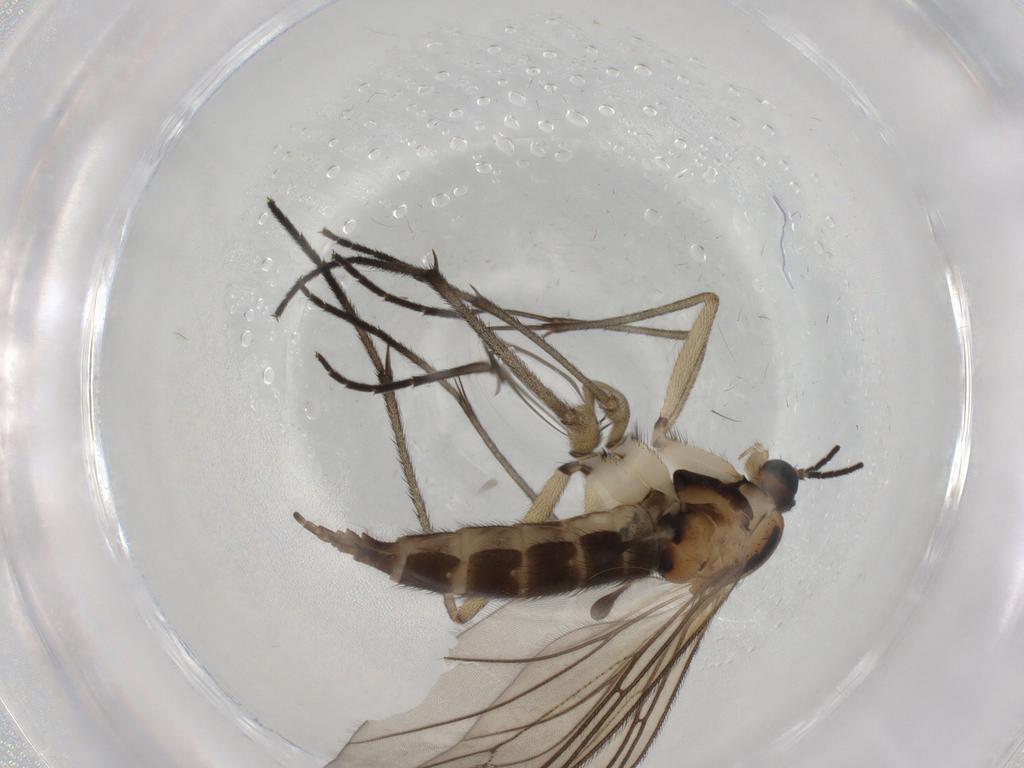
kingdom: Animalia
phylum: Arthropoda
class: Insecta
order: Diptera
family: Sciaridae
